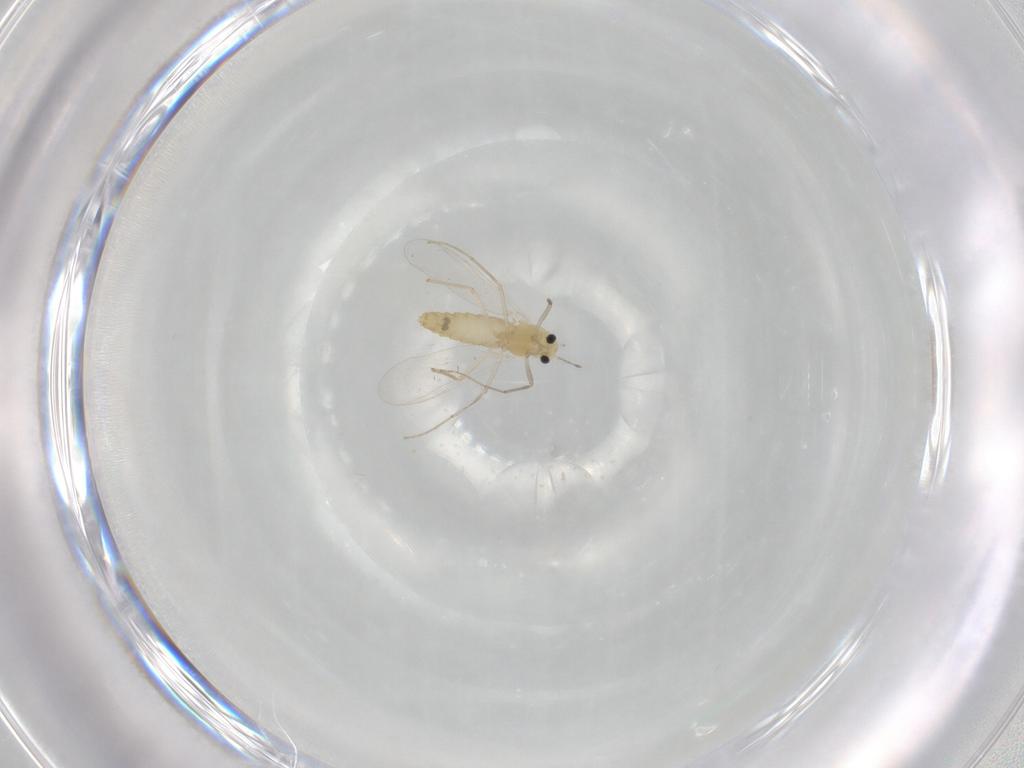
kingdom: Animalia
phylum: Arthropoda
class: Insecta
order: Diptera
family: Chironomidae
